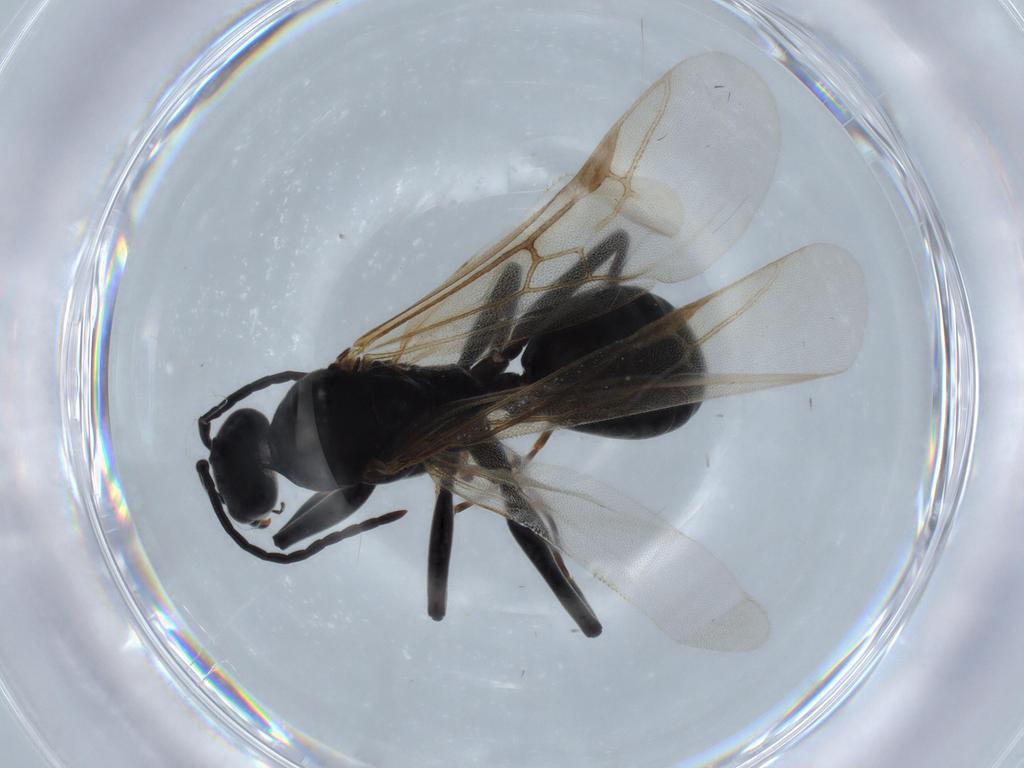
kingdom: Animalia
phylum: Arthropoda
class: Insecta
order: Hymenoptera
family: Formicidae
